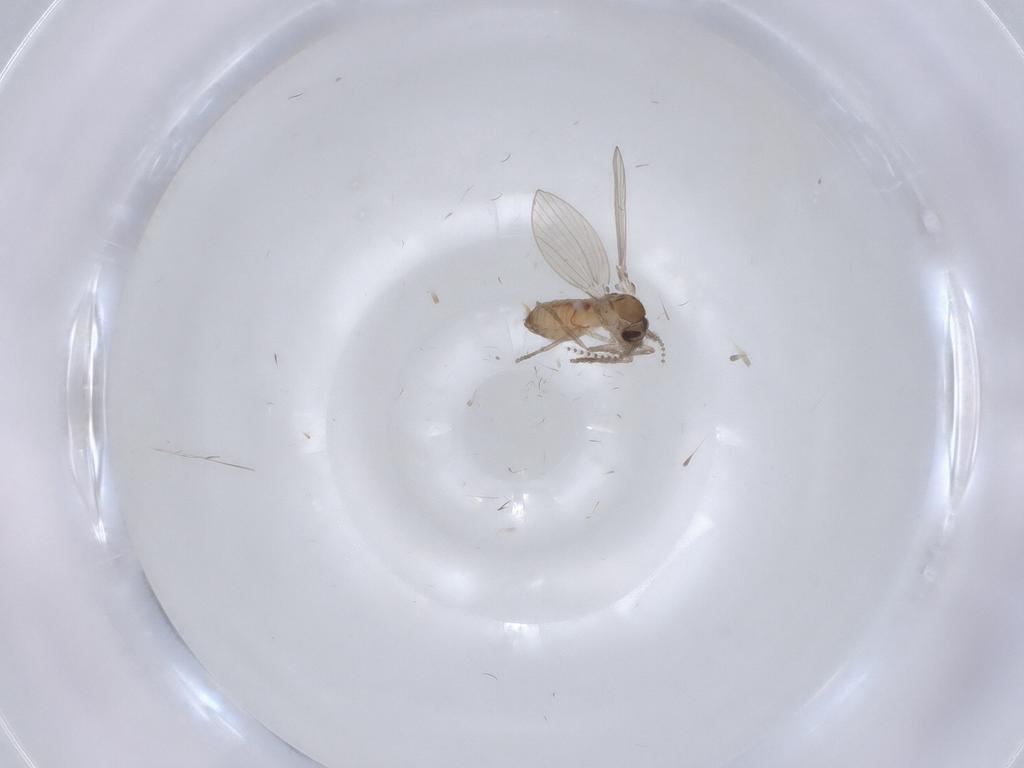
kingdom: Animalia
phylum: Arthropoda
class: Insecta
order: Diptera
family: Psychodidae
